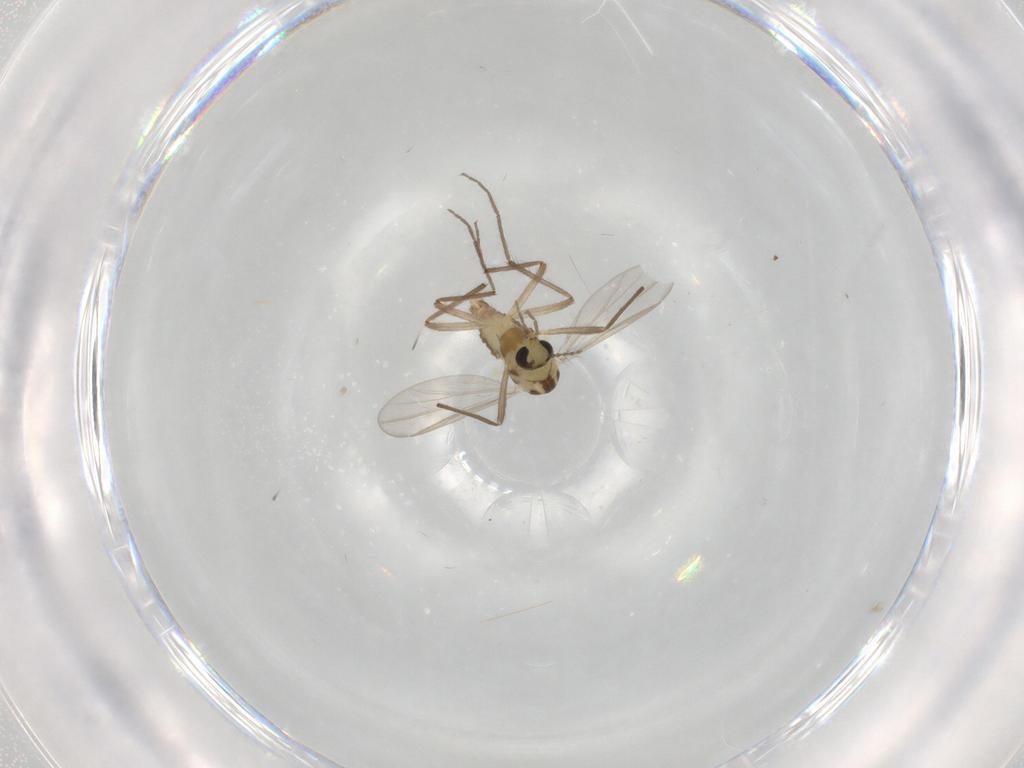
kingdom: Animalia
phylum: Arthropoda
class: Insecta
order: Diptera
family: Chironomidae
